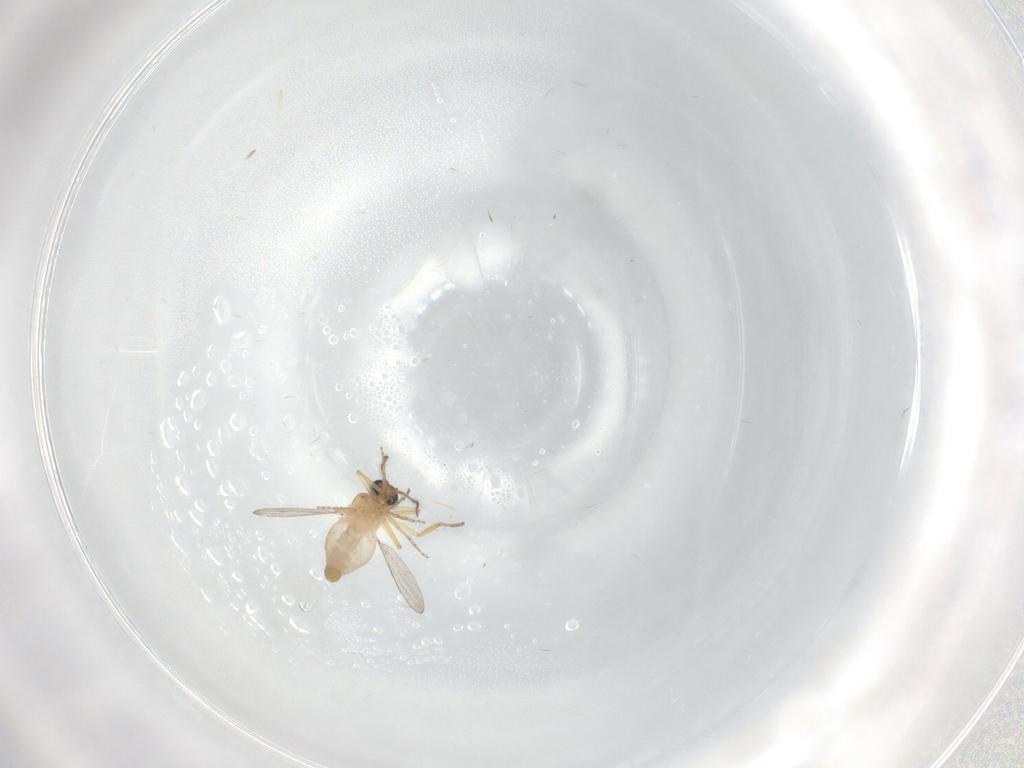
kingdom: Animalia
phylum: Arthropoda
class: Insecta
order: Diptera
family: Ceratopogonidae
